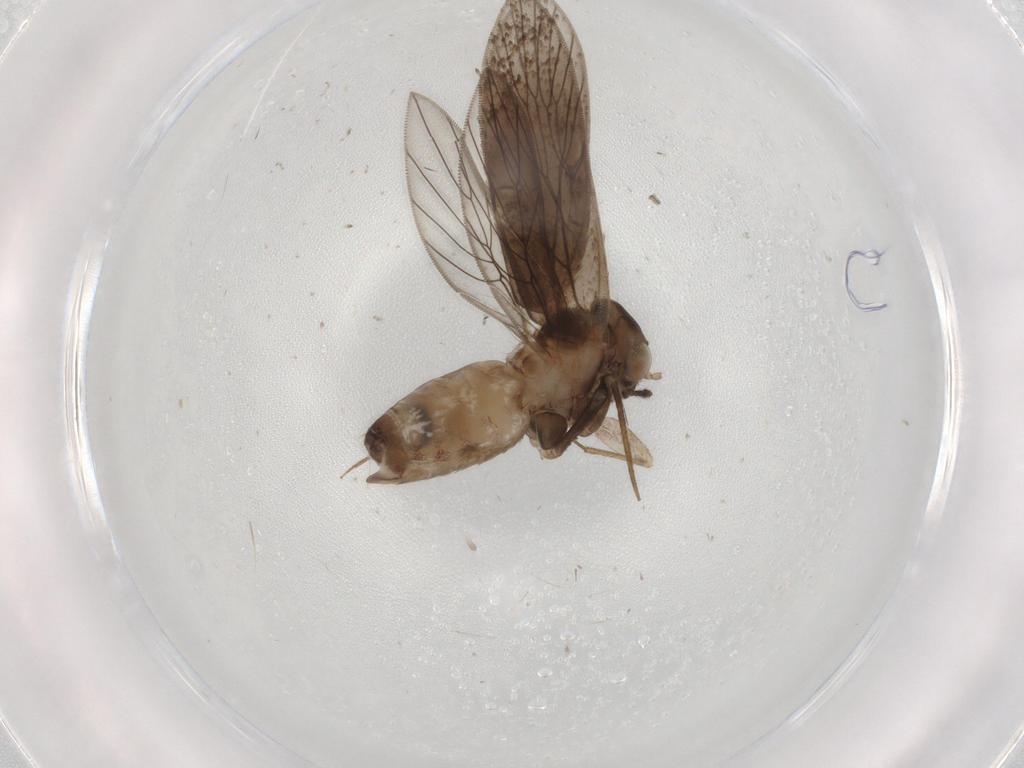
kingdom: Animalia
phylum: Arthropoda
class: Insecta
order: Psocodea
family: Lepidopsocidae
